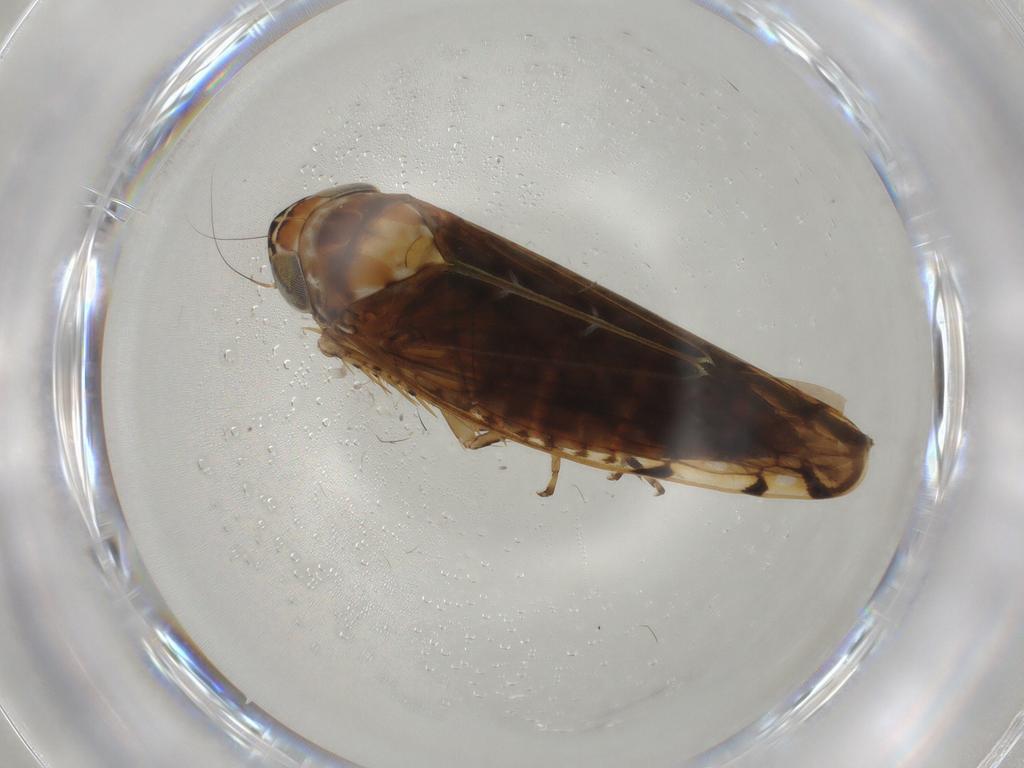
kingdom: Animalia
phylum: Arthropoda
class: Insecta
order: Hemiptera
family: Cicadellidae
